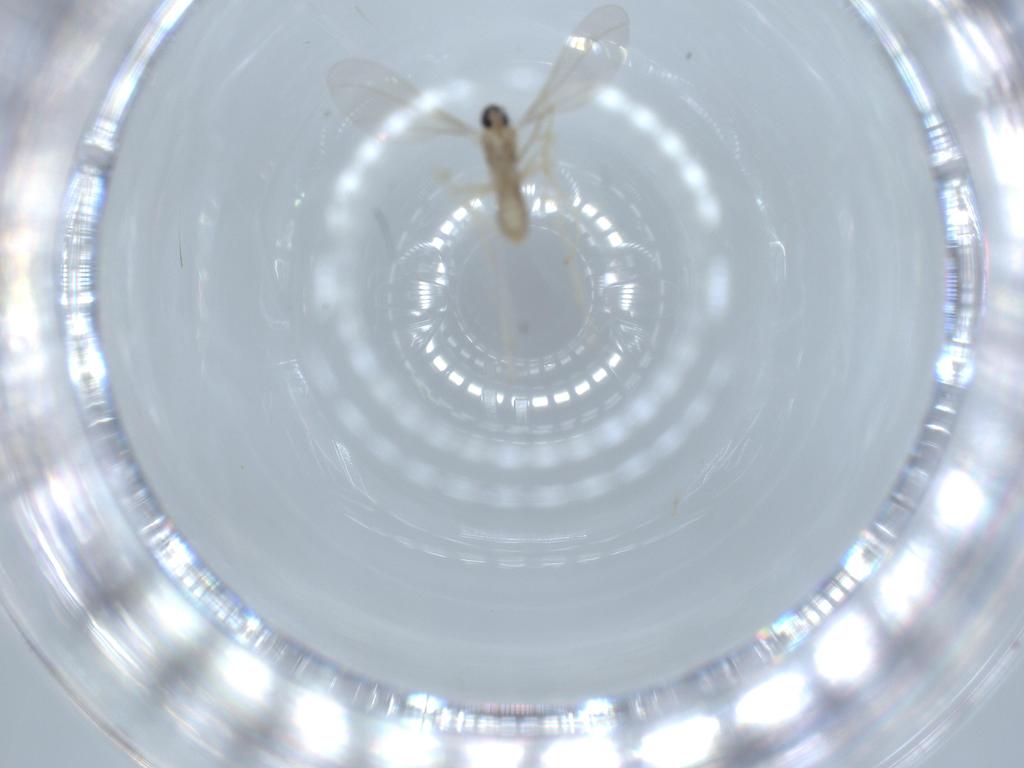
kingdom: Animalia
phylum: Arthropoda
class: Insecta
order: Diptera
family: Cecidomyiidae
